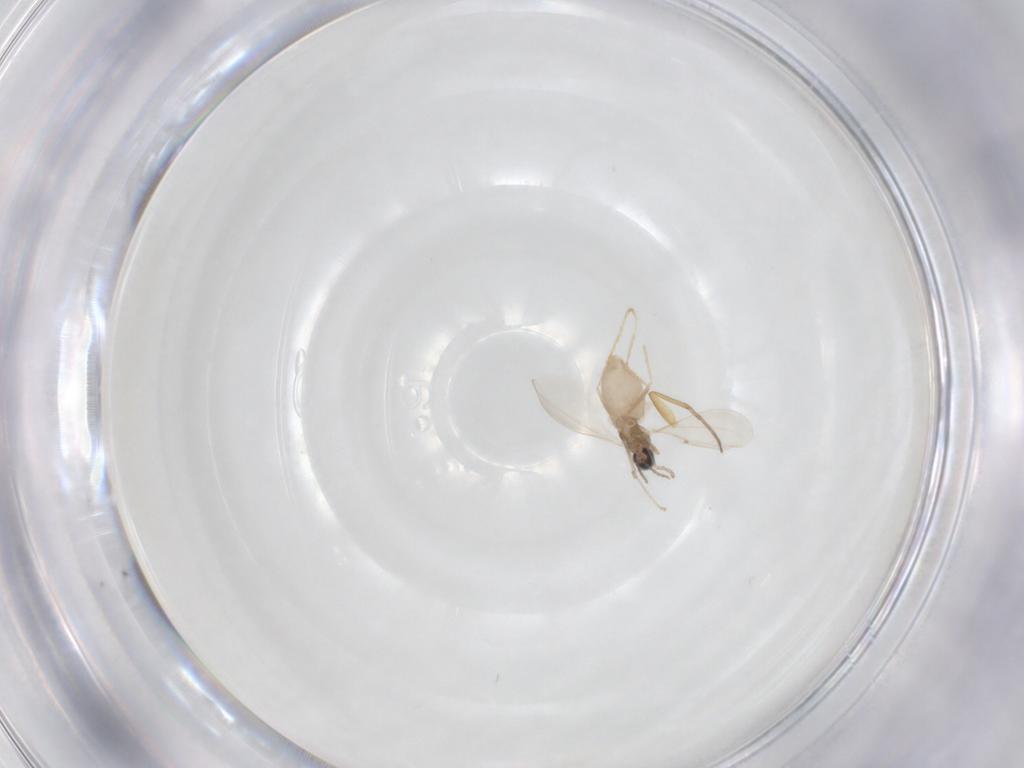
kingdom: Animalia
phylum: Arthropoda
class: Insecta
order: Diptera
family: Cecidomyiidae
